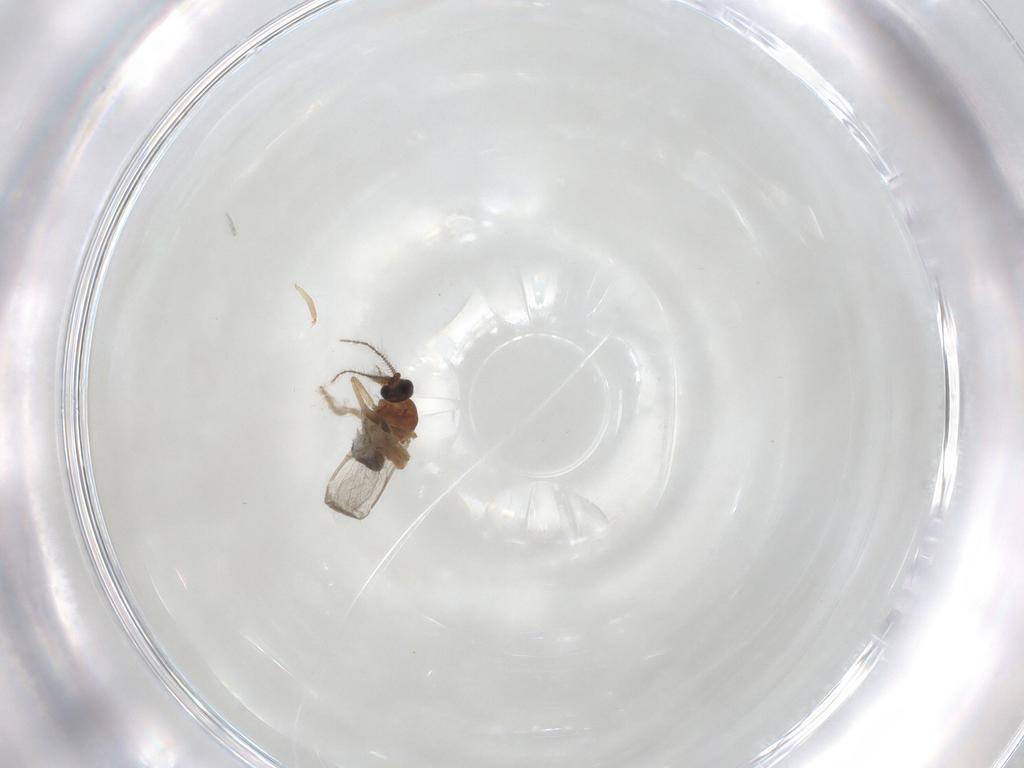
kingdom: Animalia
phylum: Arthropoda
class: Insecta
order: Diptera
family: Ceratopogonidae
